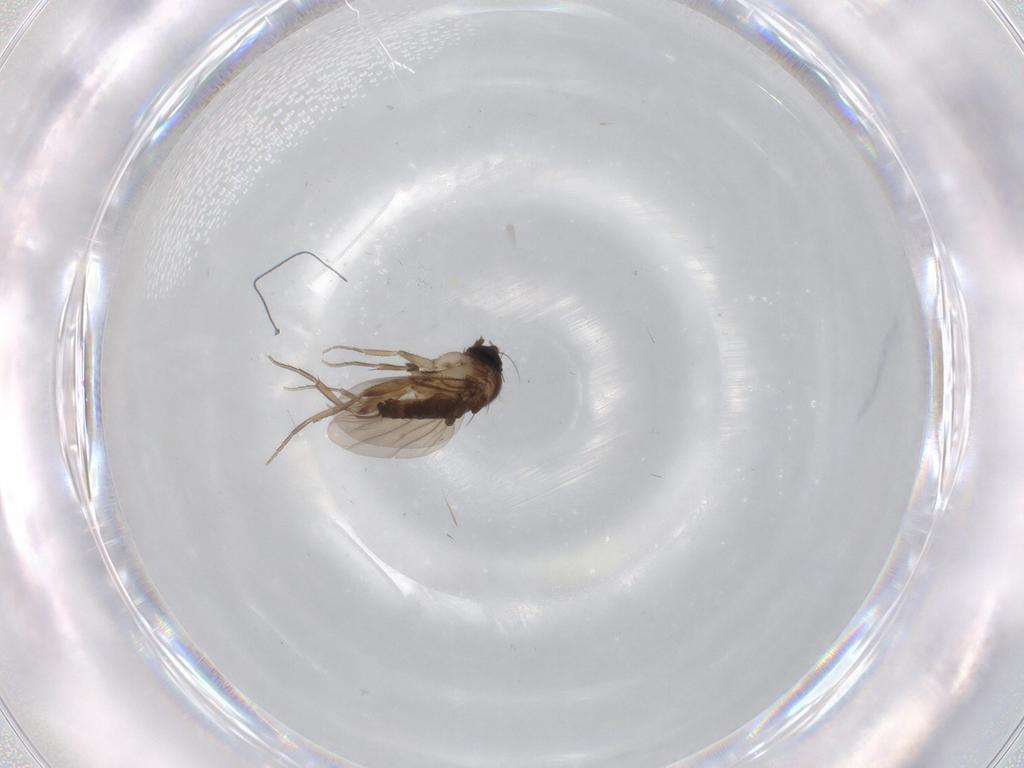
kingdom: Animalia
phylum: Arthropoda
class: Insecta
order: Diptera
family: Phoridae
